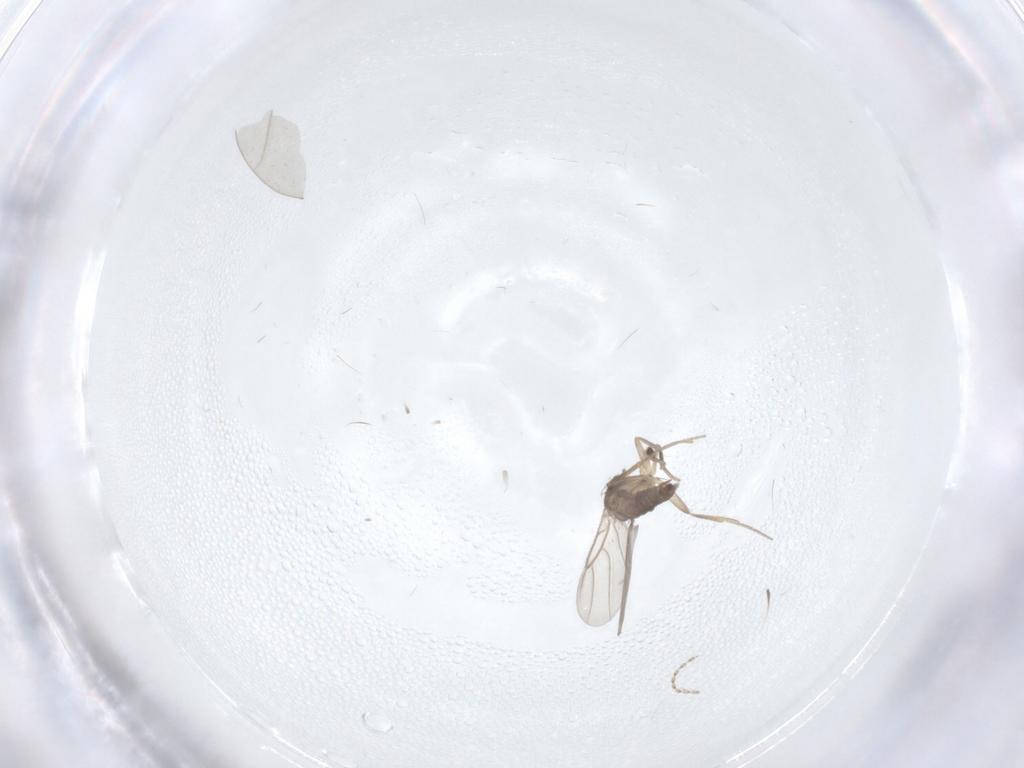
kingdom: Animalia
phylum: Arthropoda
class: Insecta
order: Diptera
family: Phoridae
